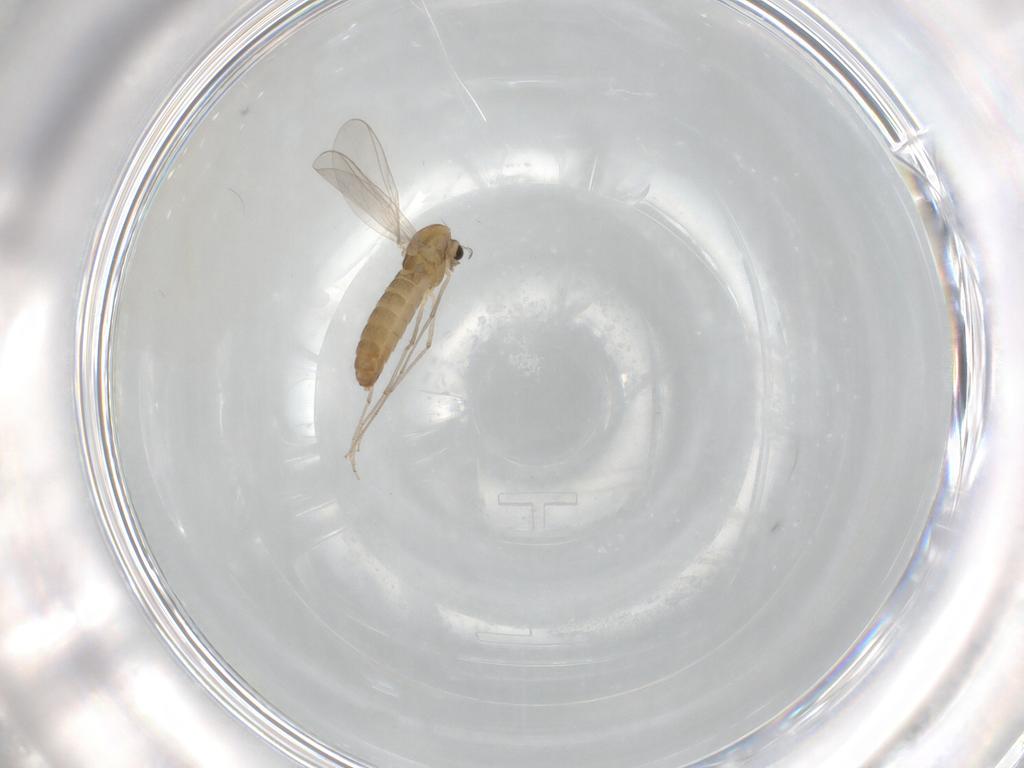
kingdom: Animalia
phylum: Arthropoda
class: Insecta
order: Diptera
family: Chironomidae
